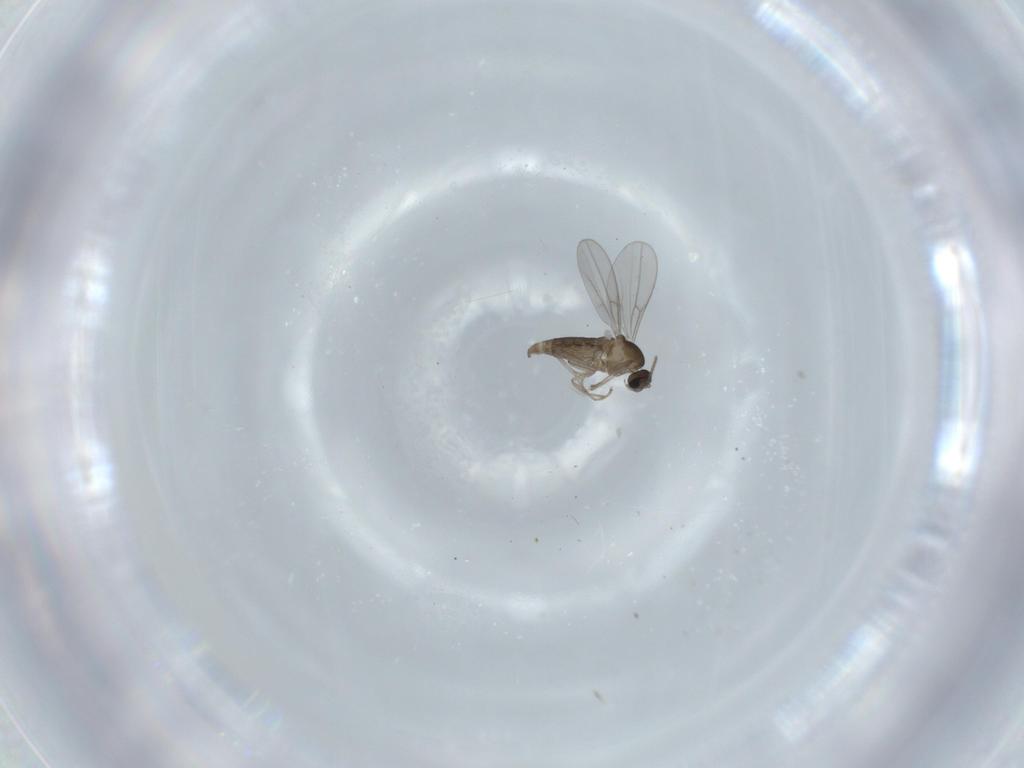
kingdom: Animalia
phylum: Arthropoda
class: Insecta
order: Diptera
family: Cecidomyiidae
